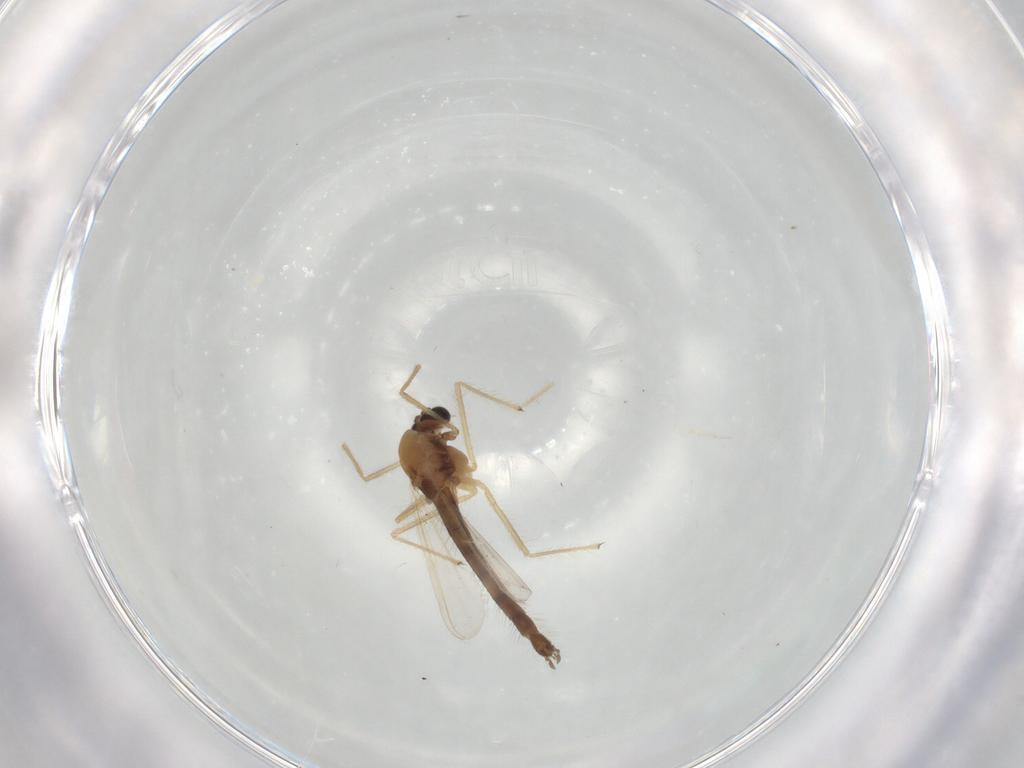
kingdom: Animalia
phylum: Arthropoda
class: Insecta
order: Diptera
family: Chironomidae
